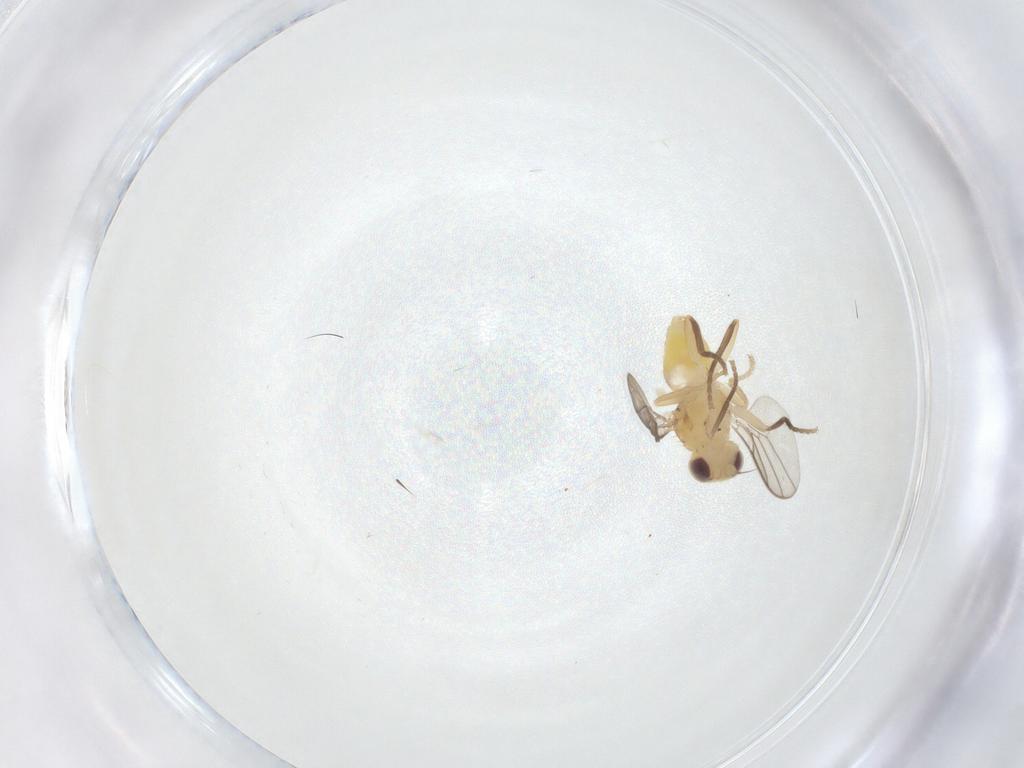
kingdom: Animalia
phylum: Arthropoda
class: Insecta
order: Diptera
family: Chloropidae
